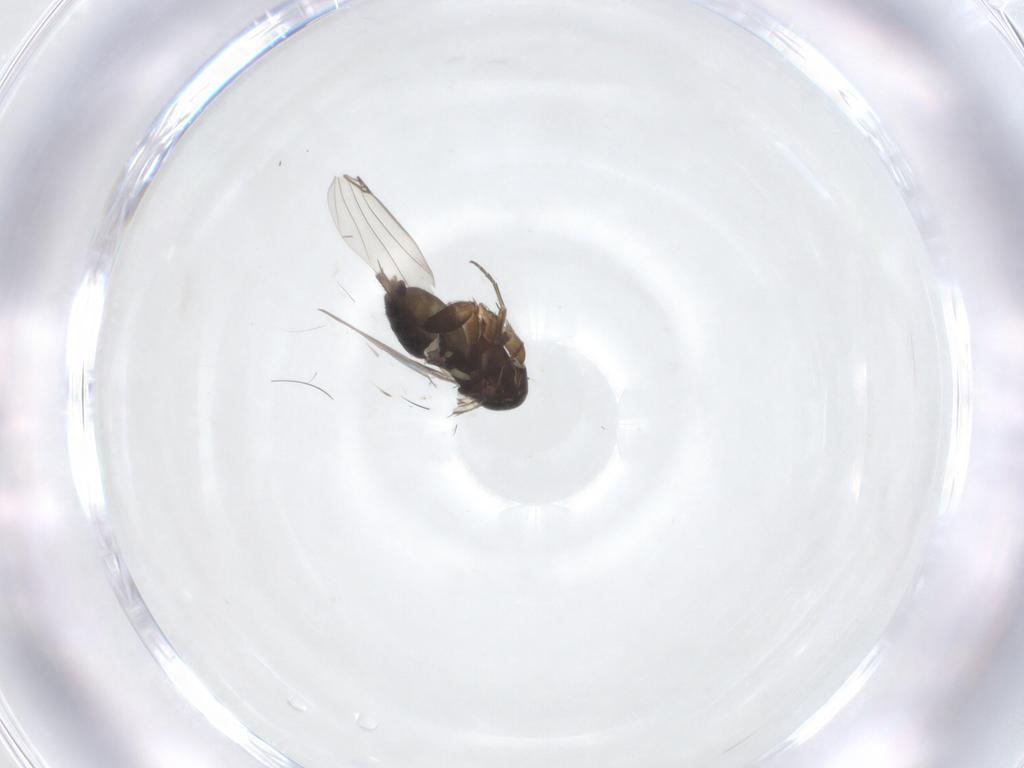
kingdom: Animalia
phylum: Arthropoda
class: Insecta
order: Diptera
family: Phoridae
